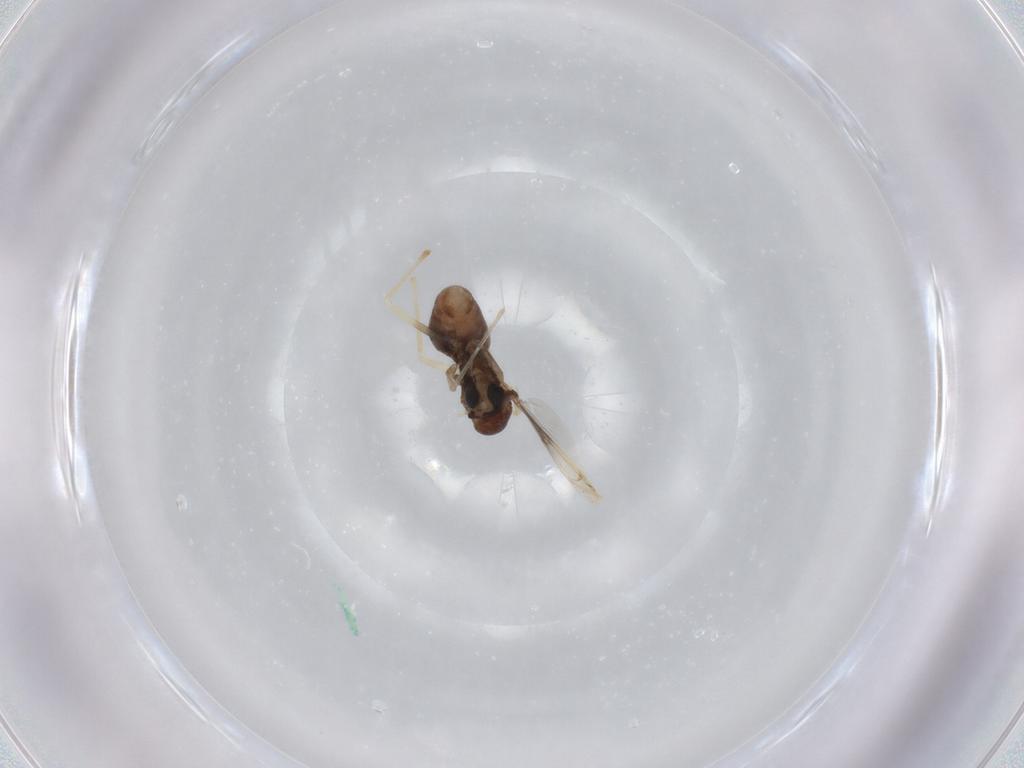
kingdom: Animalia
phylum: Arthropoda
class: Insecta
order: Diptera
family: Chironomidae
